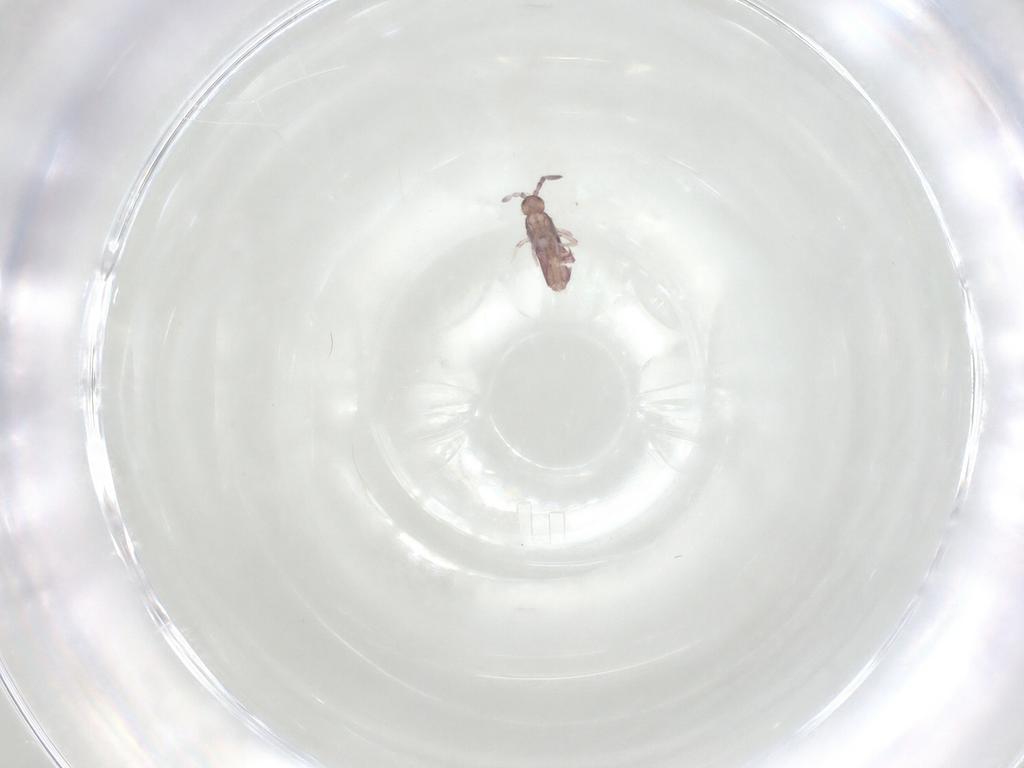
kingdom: Animalia
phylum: Arthropoda
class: Collembola
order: Entomobryomorpha
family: Entomobryidae
